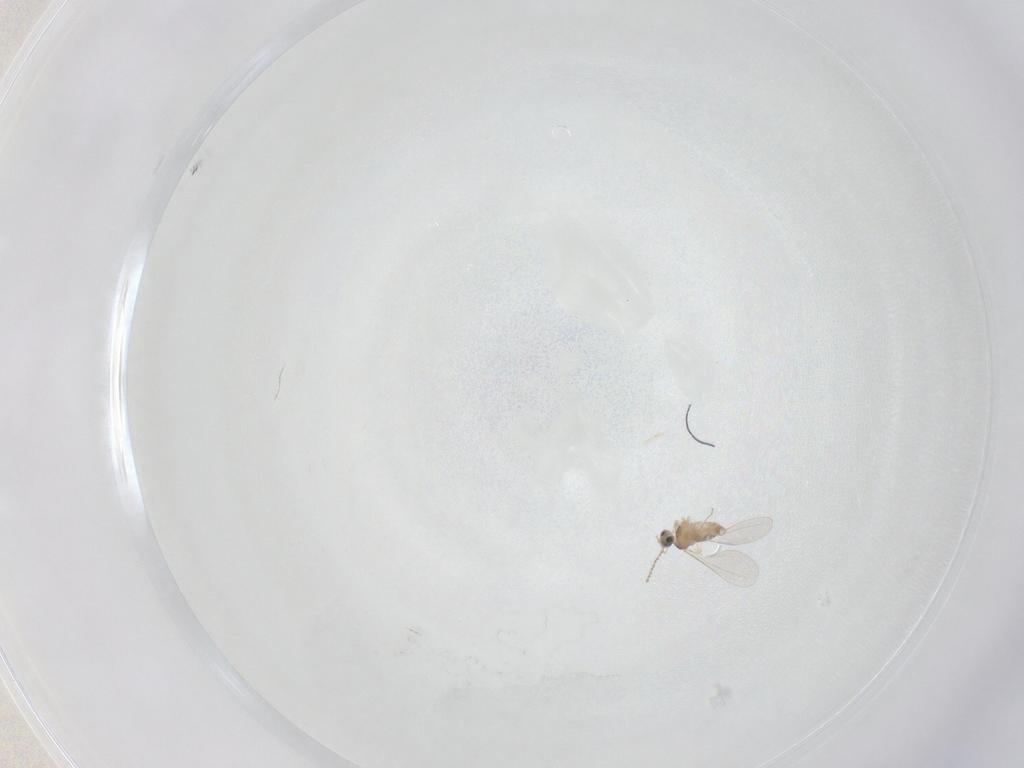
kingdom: Animalia
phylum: Arthropoda
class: Insecta
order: Diptera
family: Cecidomyiidae
